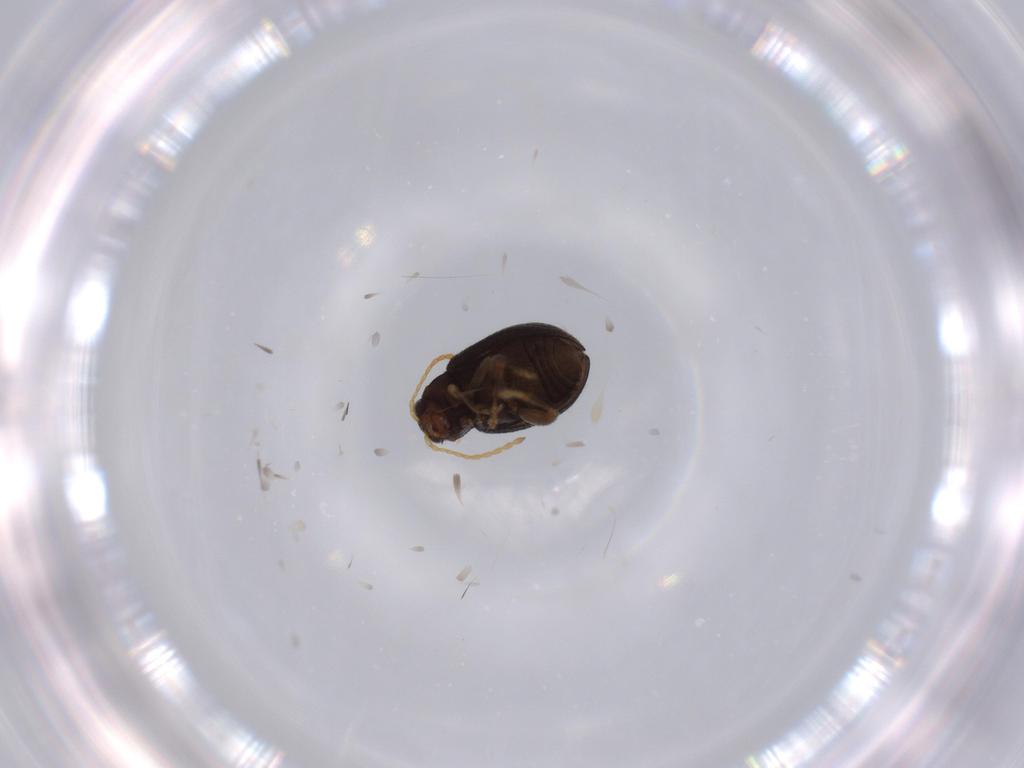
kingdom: Animalia
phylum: Arthropoda
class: Insecta
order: Coleoptera
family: Chrysomelidae
